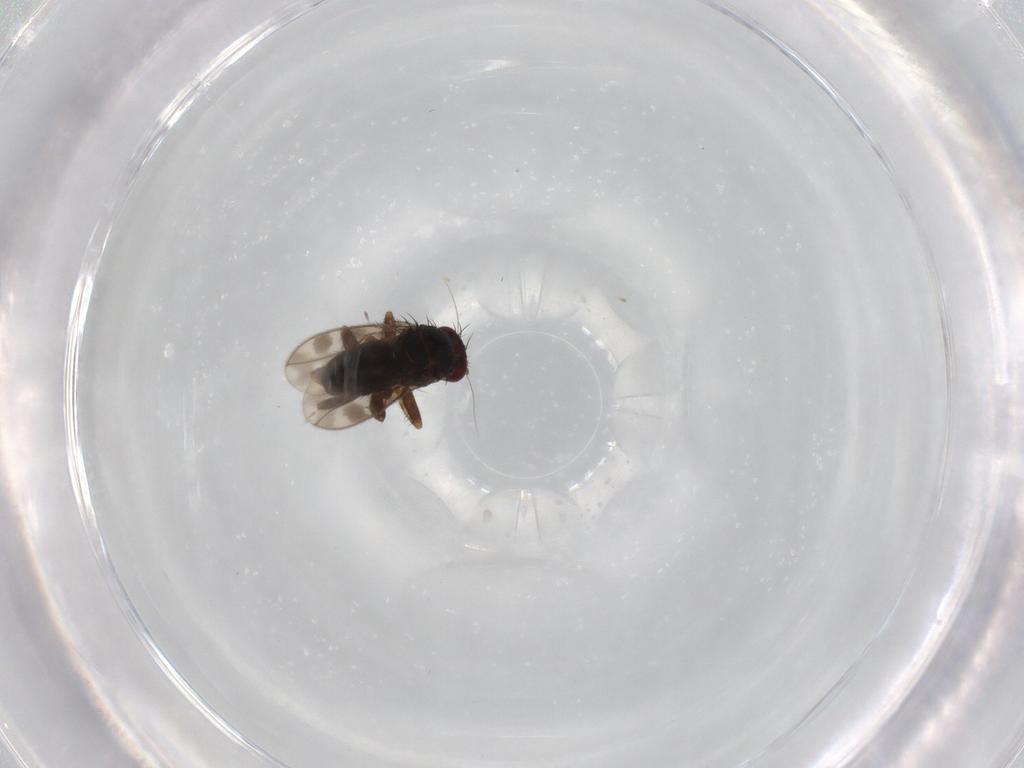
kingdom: Animalia
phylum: Arthropoda
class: Insecta
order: Diptera
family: Sphaeroceridae
